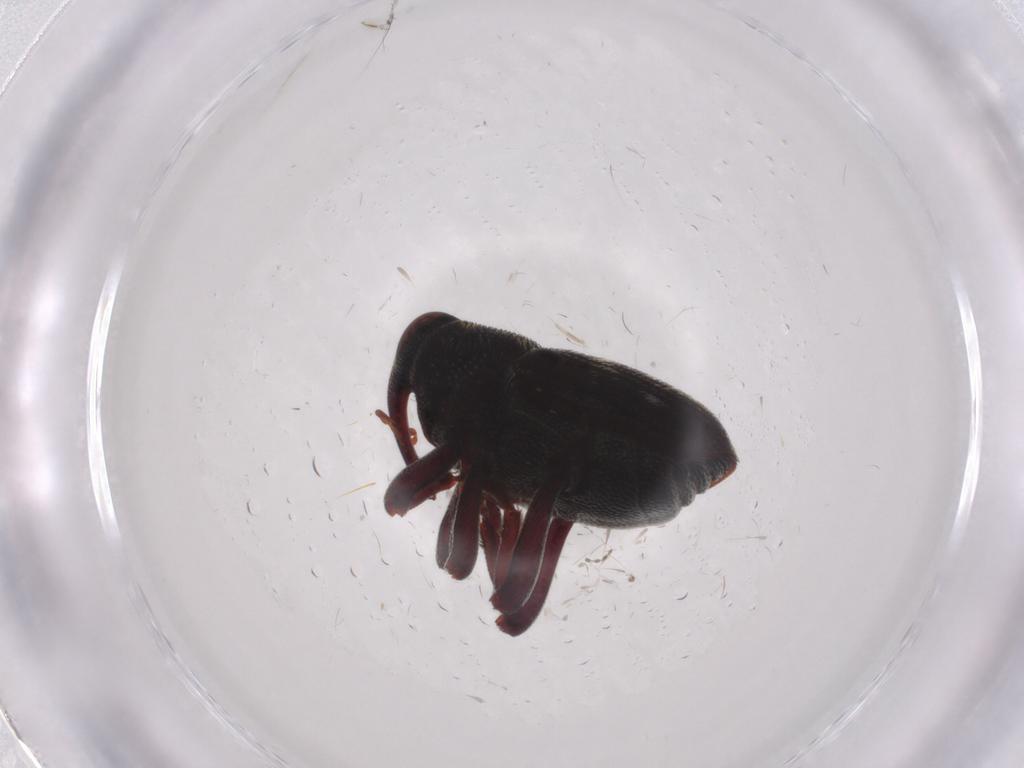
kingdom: Animalia
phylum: Arthropoda
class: Insecta
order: Coleoptera
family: Curculionidae
